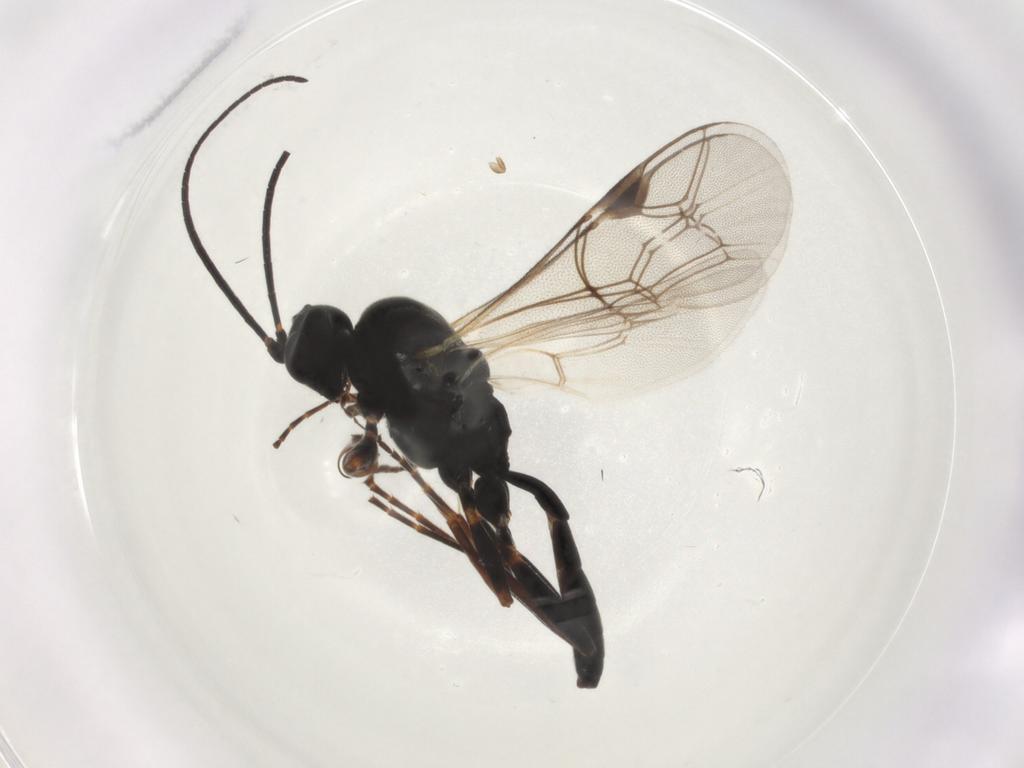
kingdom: Animalia
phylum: Arthropoda
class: Insecta
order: Hymenoptera
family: Ichneumonidae
